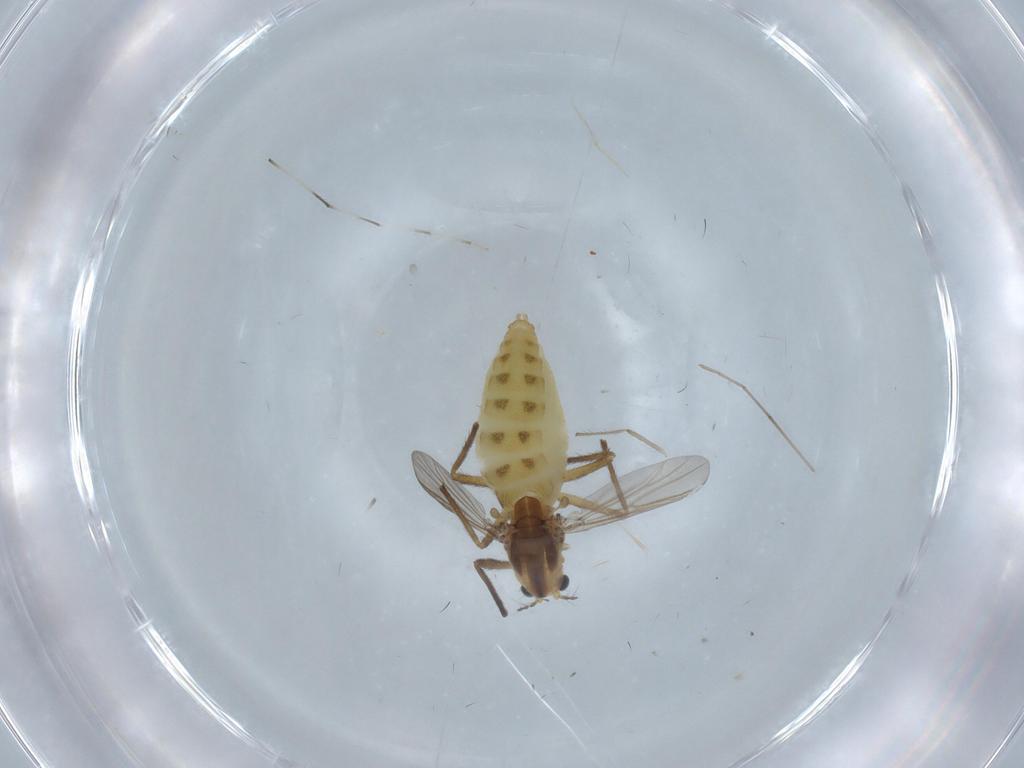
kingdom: Animalia
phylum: Arthropoda
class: Insecta
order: Diptera
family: Chironomidae
